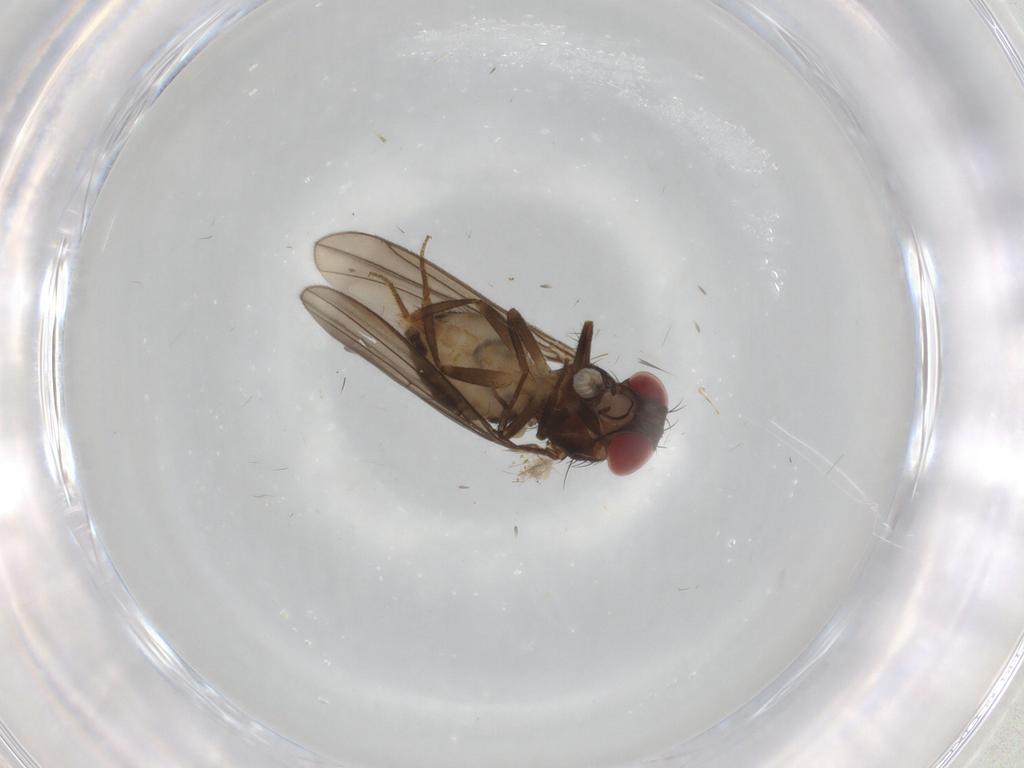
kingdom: Animalia
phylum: Arthropoda
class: Insecta
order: Diptera
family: Drosophilidae
